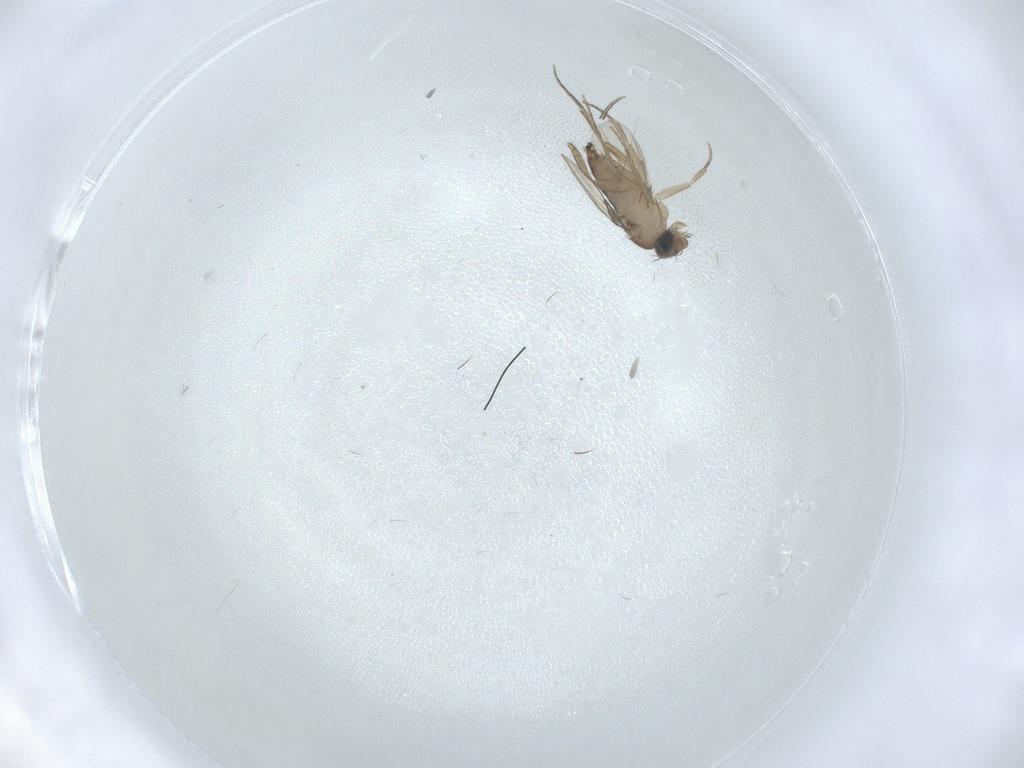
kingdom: Animalia
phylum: Arthropoda
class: Insecta
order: Diptera
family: Phoridae
